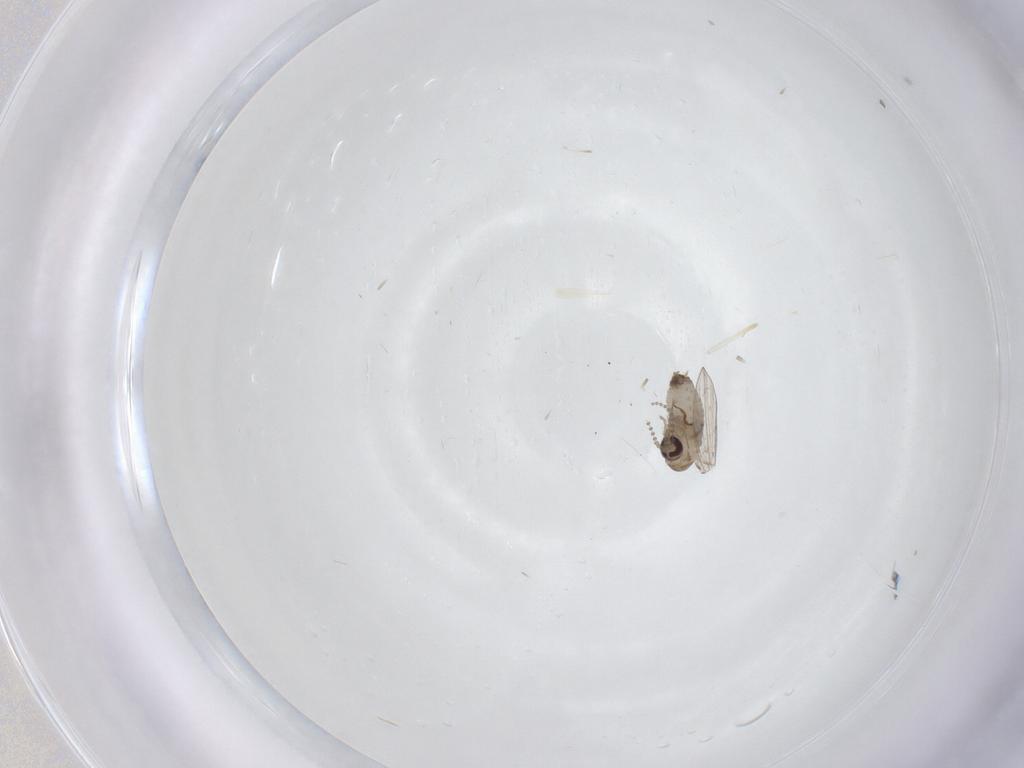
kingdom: Animalia
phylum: Arthropoda
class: Insecta
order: Diptera
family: Psychodidae
